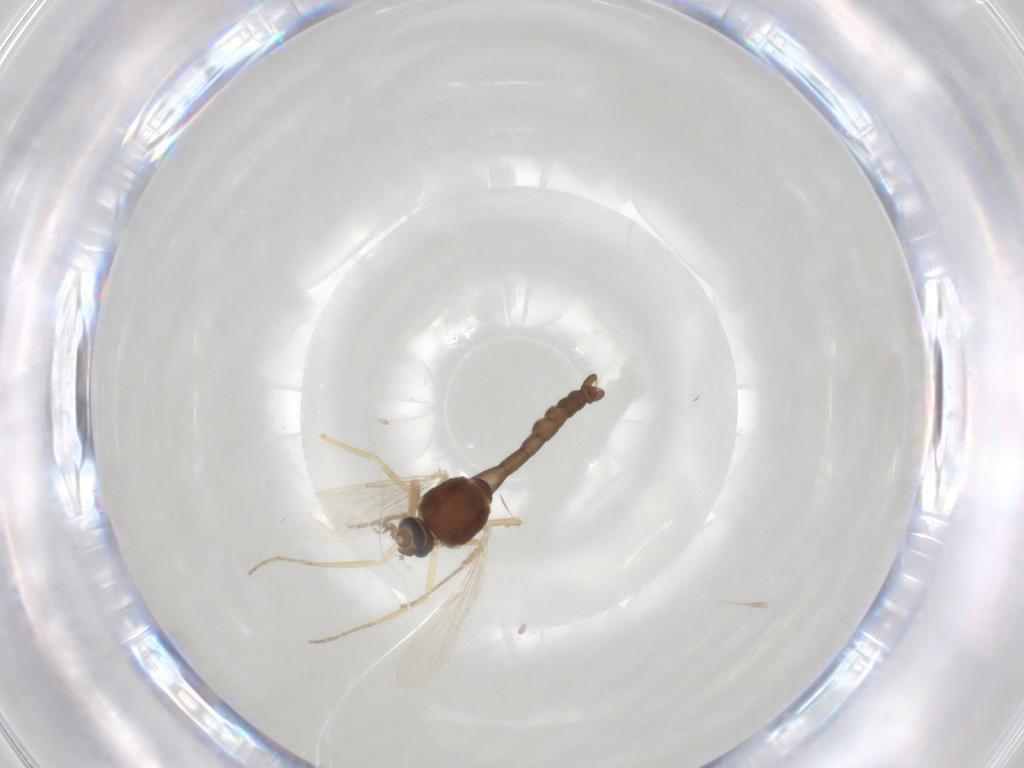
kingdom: Animalia
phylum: Arthropoda
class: Insecta
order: Diptera
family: Ceratopogonidae
